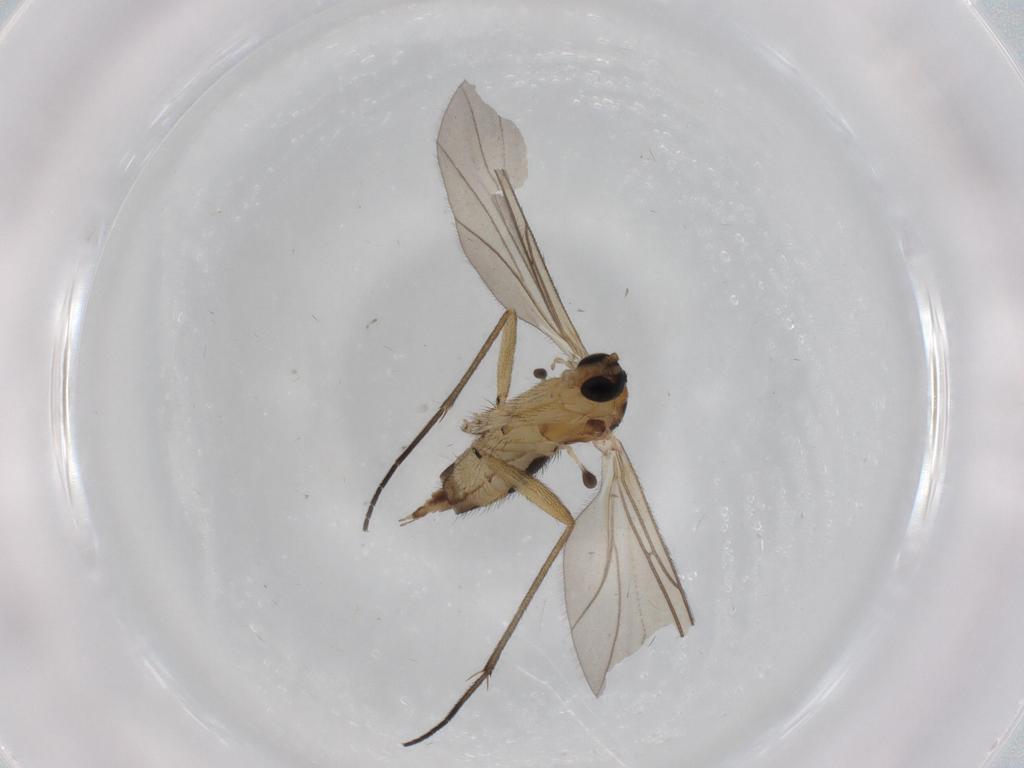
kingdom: Animalia
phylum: Arthropoda
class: Insecta
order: Diptera
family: Sciaridae
